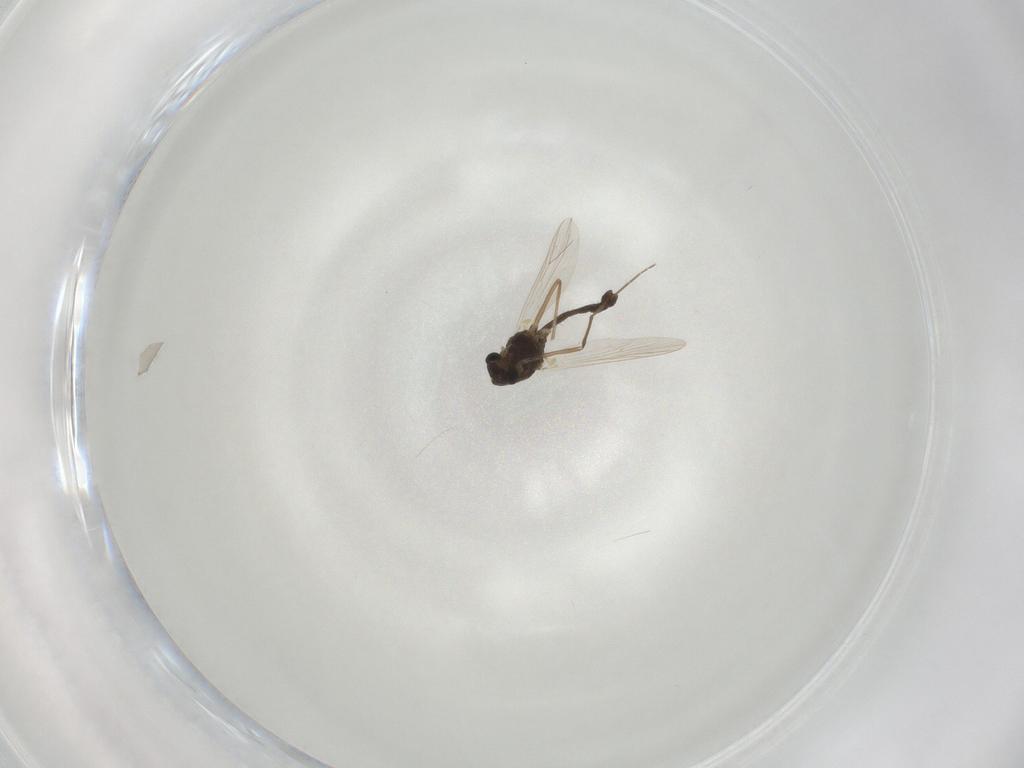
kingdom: Animalia
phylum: Arthropoda
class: Insecta
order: Diptera
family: Chironomidae
